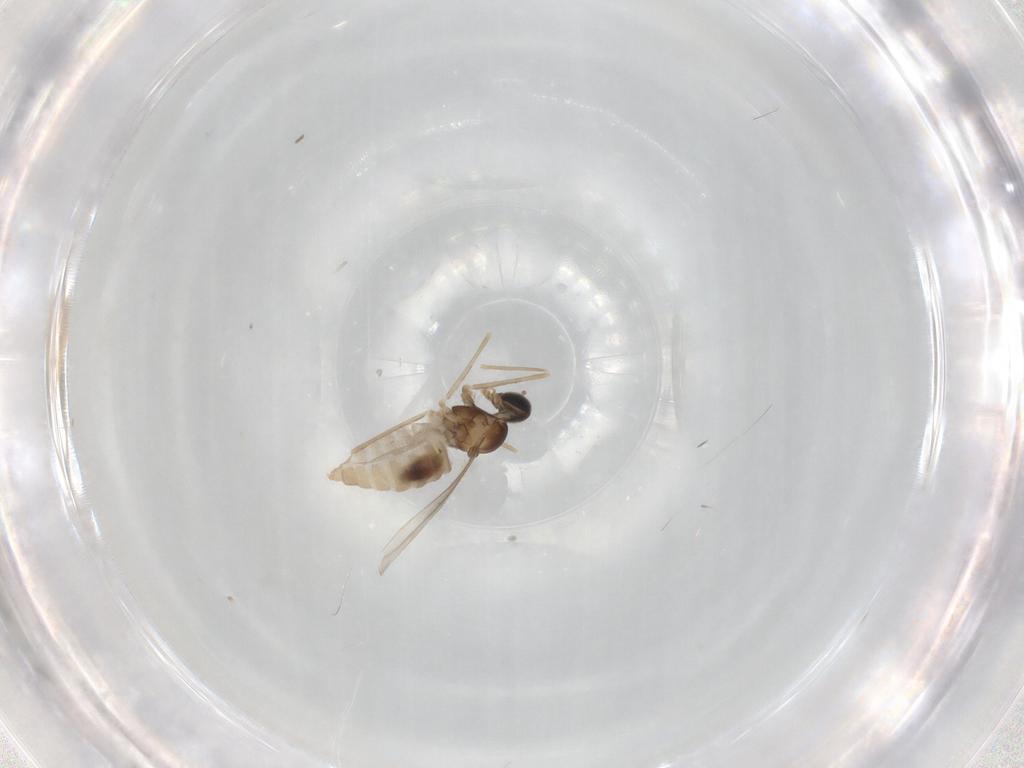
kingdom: Animalia
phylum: Arthropoda
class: Insecta
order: Diptera
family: Cecidomyiidae
